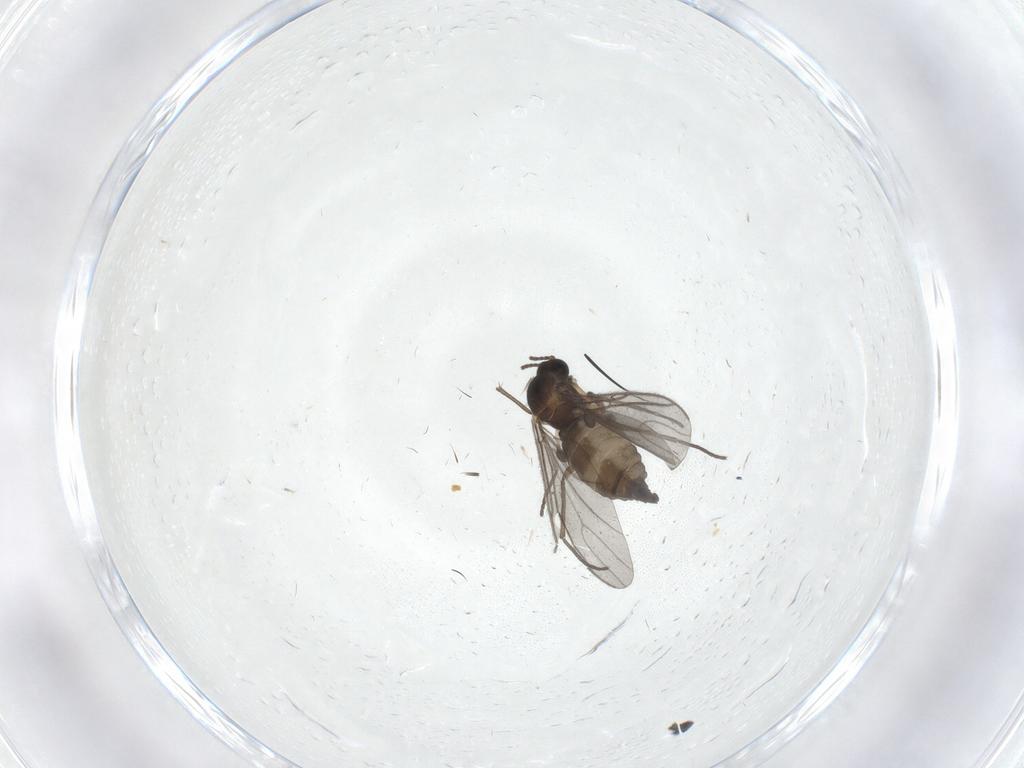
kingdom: Animalia
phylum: Arthropoda
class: Insecta
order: Diptera
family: Sciaridae
